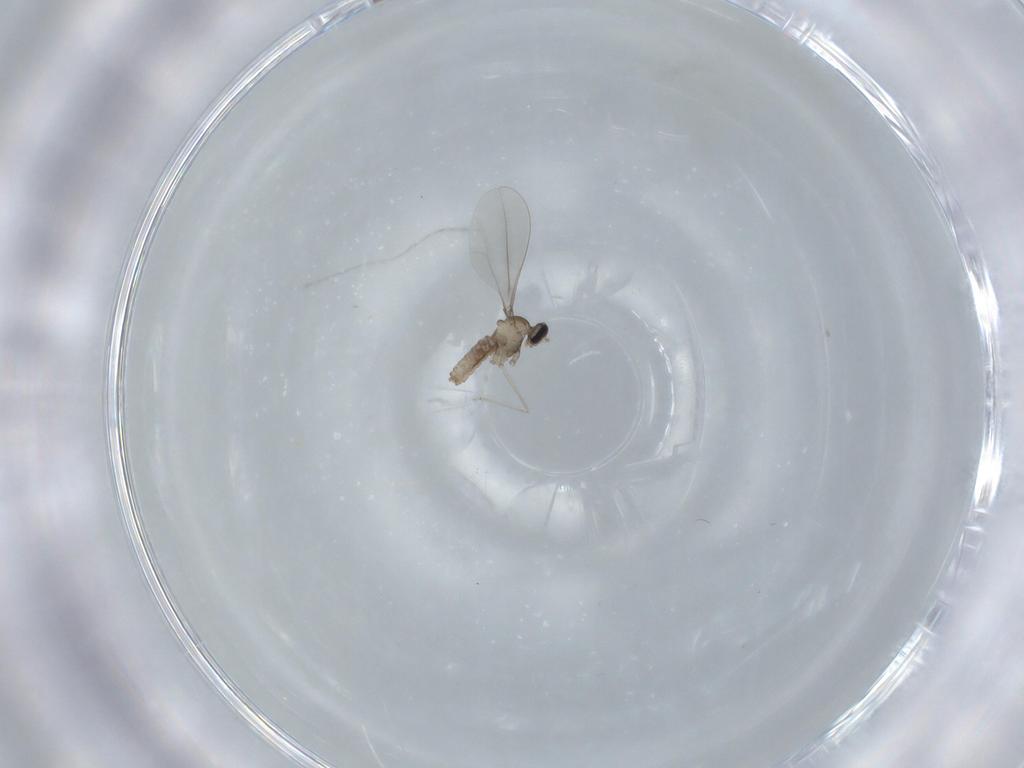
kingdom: Animalia
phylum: Arthropoda
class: Insecta
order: Diptera
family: Cecidomyiidae
